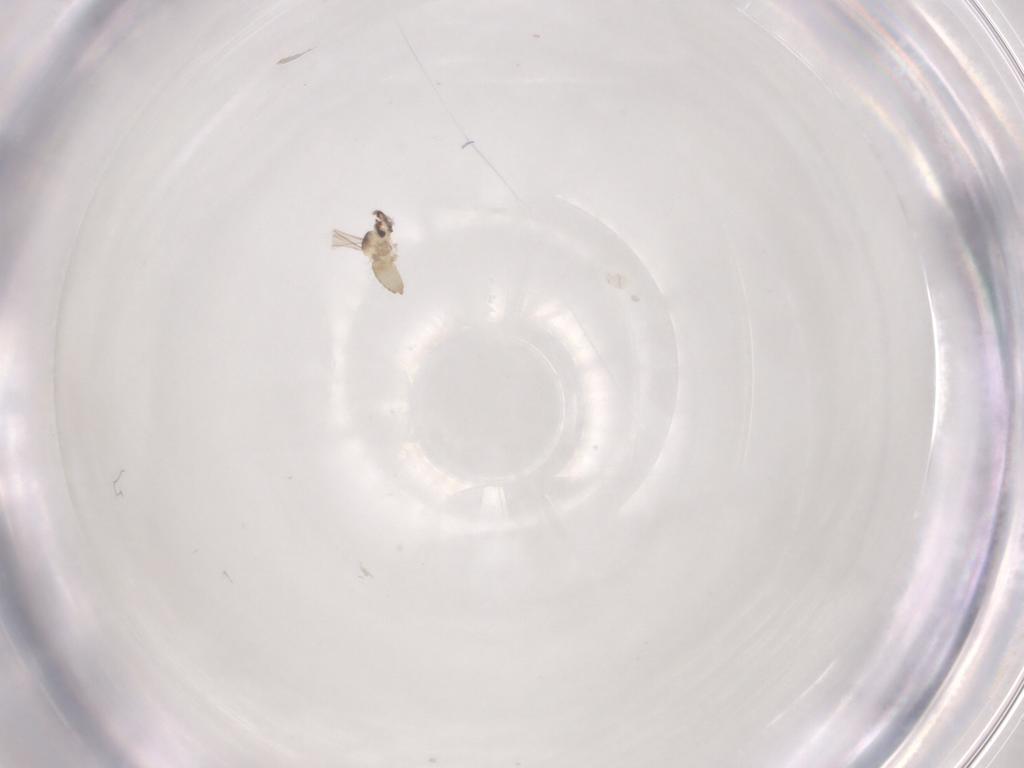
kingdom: Animalia
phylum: Arthropoda
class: Insecta
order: Diptera
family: Cecidomyiidae
